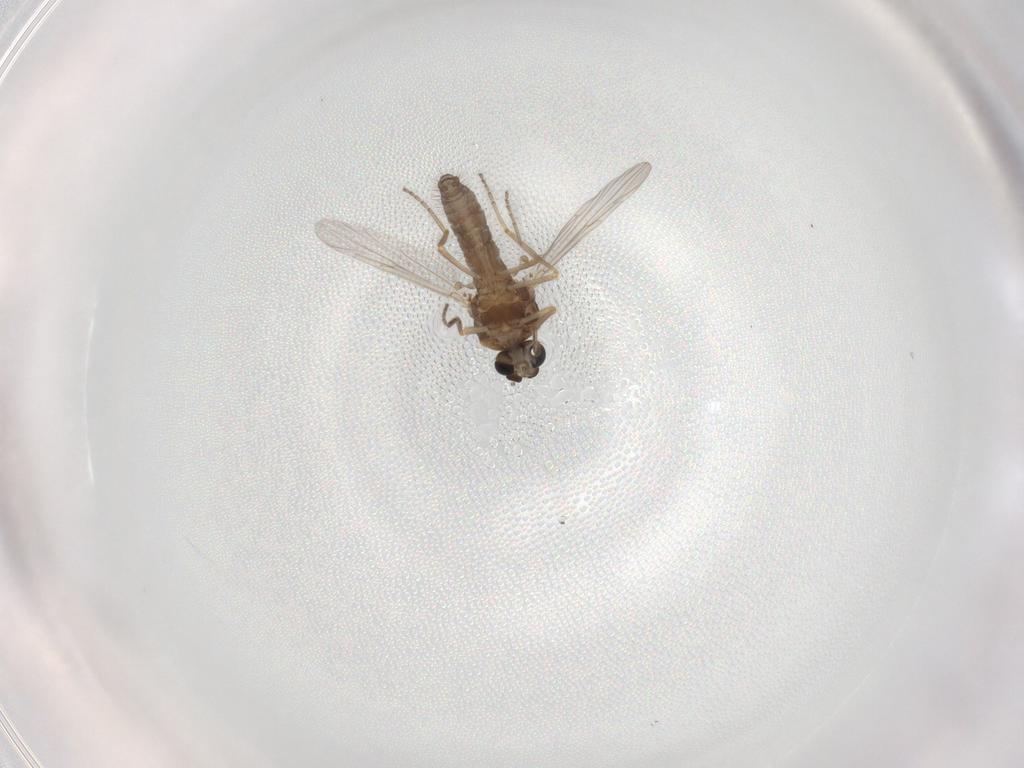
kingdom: Animalia
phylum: Arthropoda
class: Insecta
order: Diptera
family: Ceratopogonidae
